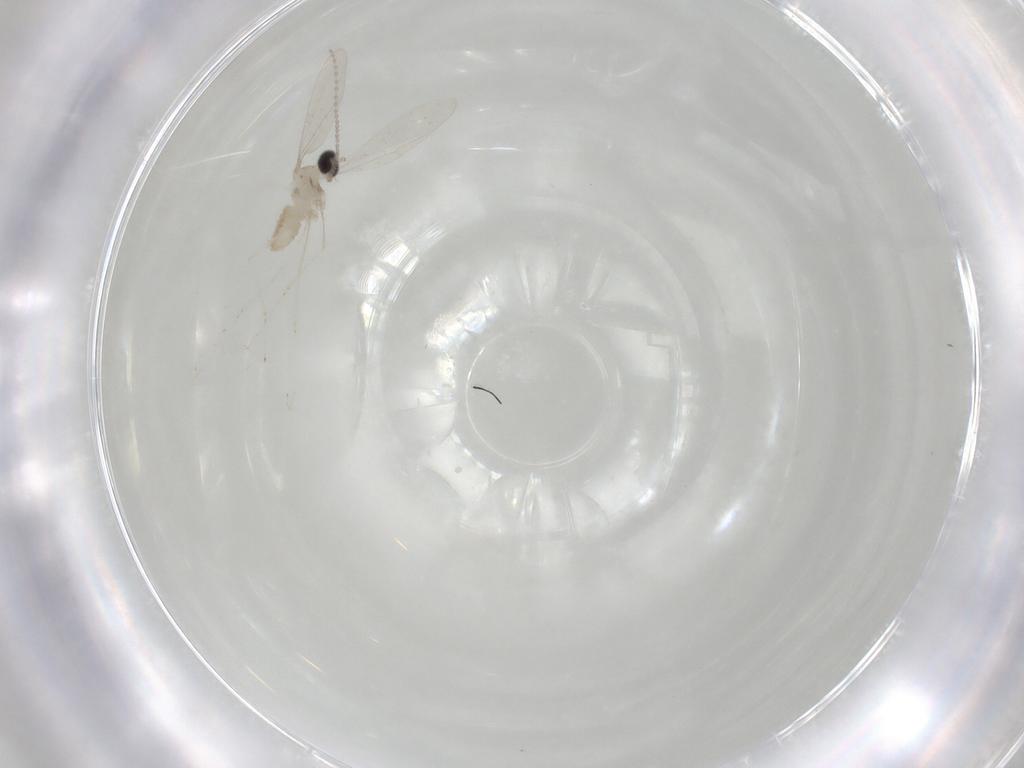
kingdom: Animalia
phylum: Arthropoda
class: Insecta
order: Diptera
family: Cecidomyiidae
